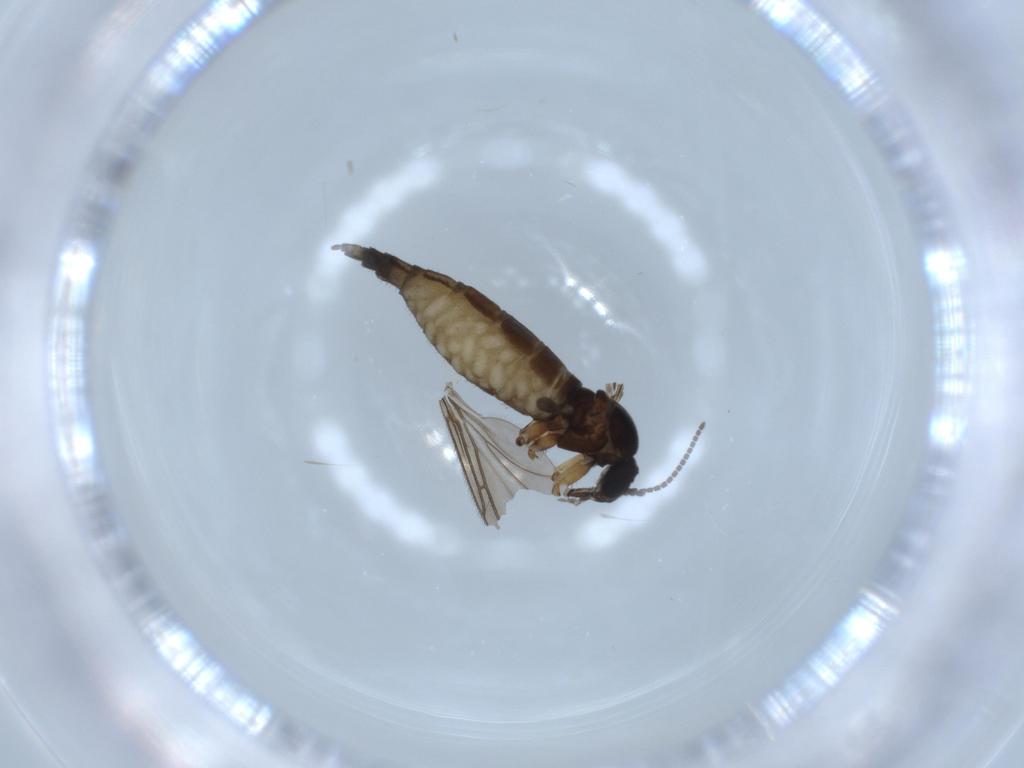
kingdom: Animalia
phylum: Arthropoda
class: Insecta
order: Diptera
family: Sciaridae
